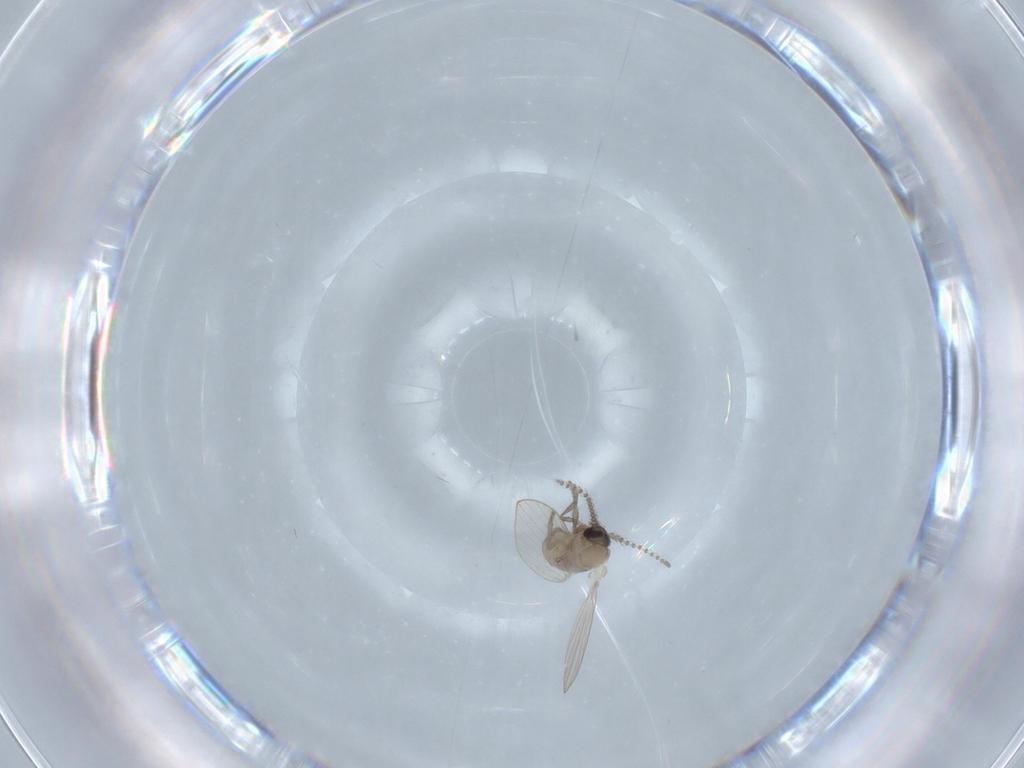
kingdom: Animalia
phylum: Arthropoda
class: Insecta
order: Diptera
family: Psychodidae
